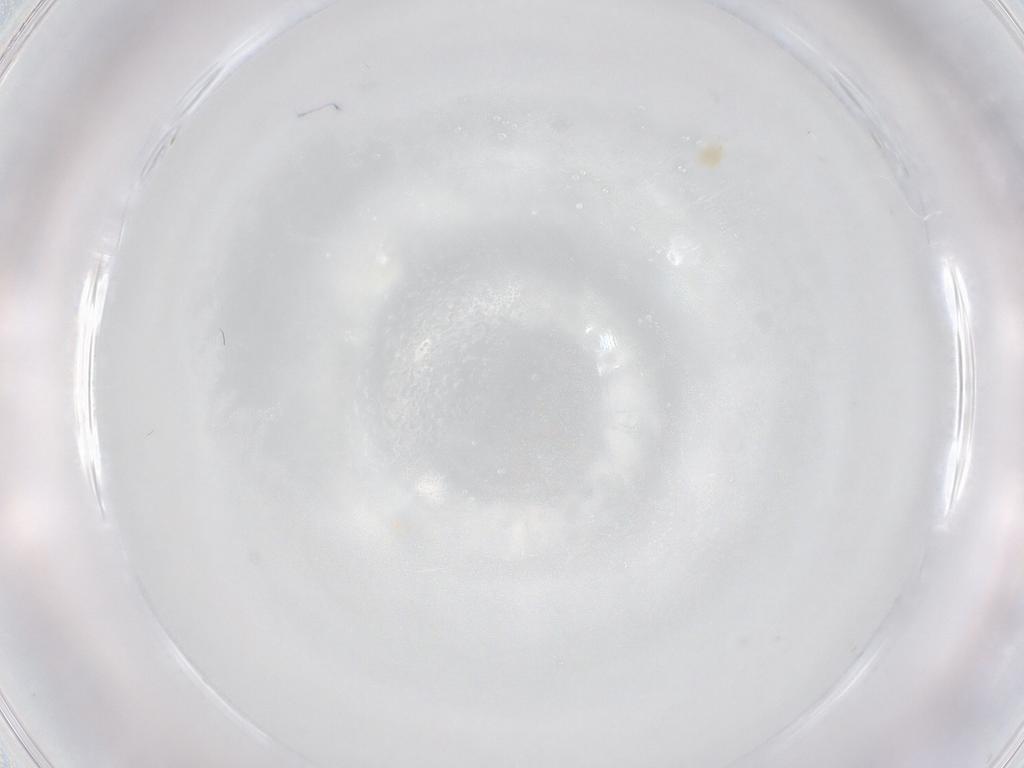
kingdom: Animalia
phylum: Arthropoda
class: Arachnida
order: Trombidiformes
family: Eupodidae
